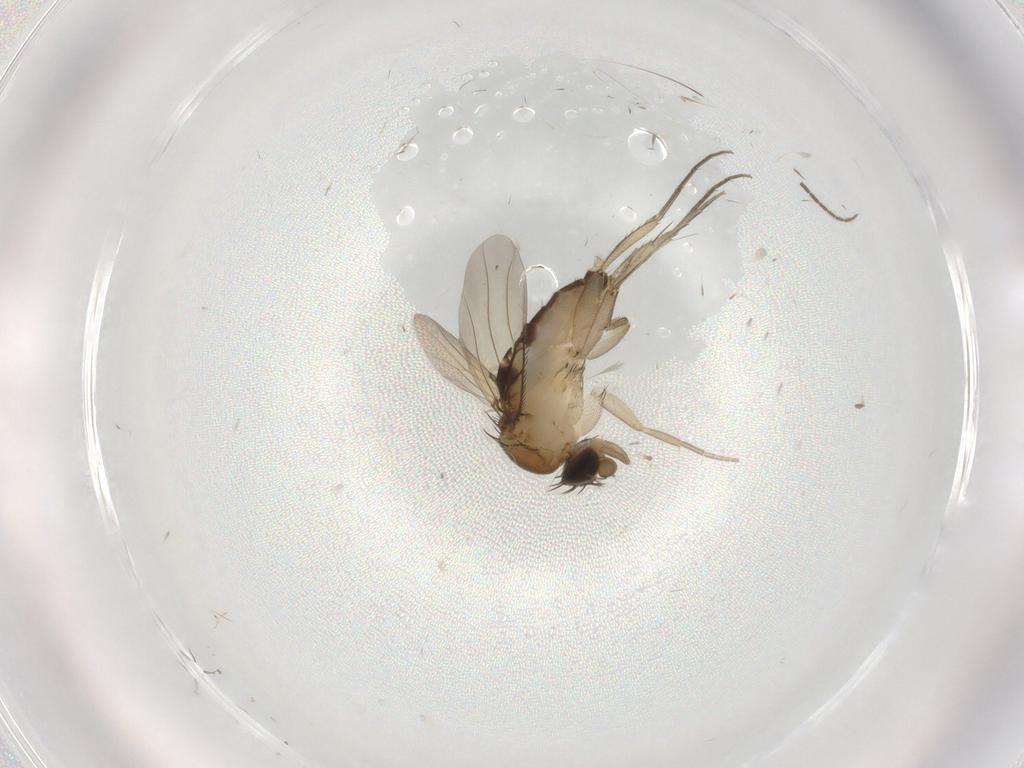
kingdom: Animalia
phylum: Arthropoda
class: Insecta
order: Diptera
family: Phoridae
